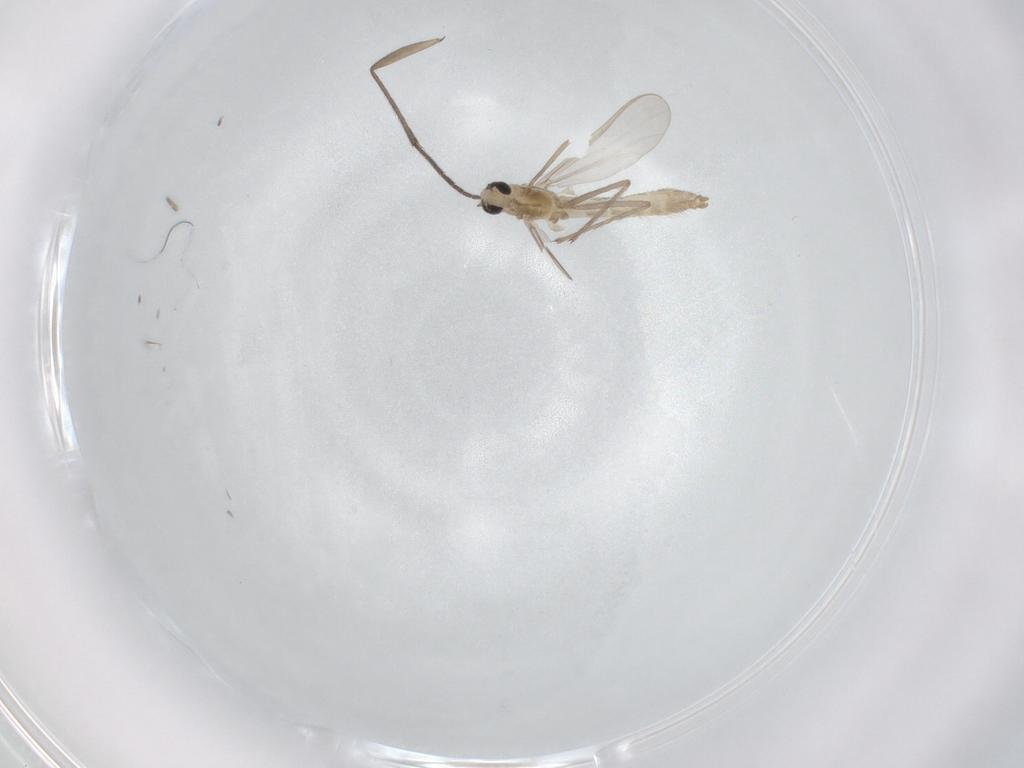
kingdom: Animalia
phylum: Arthropoda
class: Insecta
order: Diptera
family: Chironomidae
